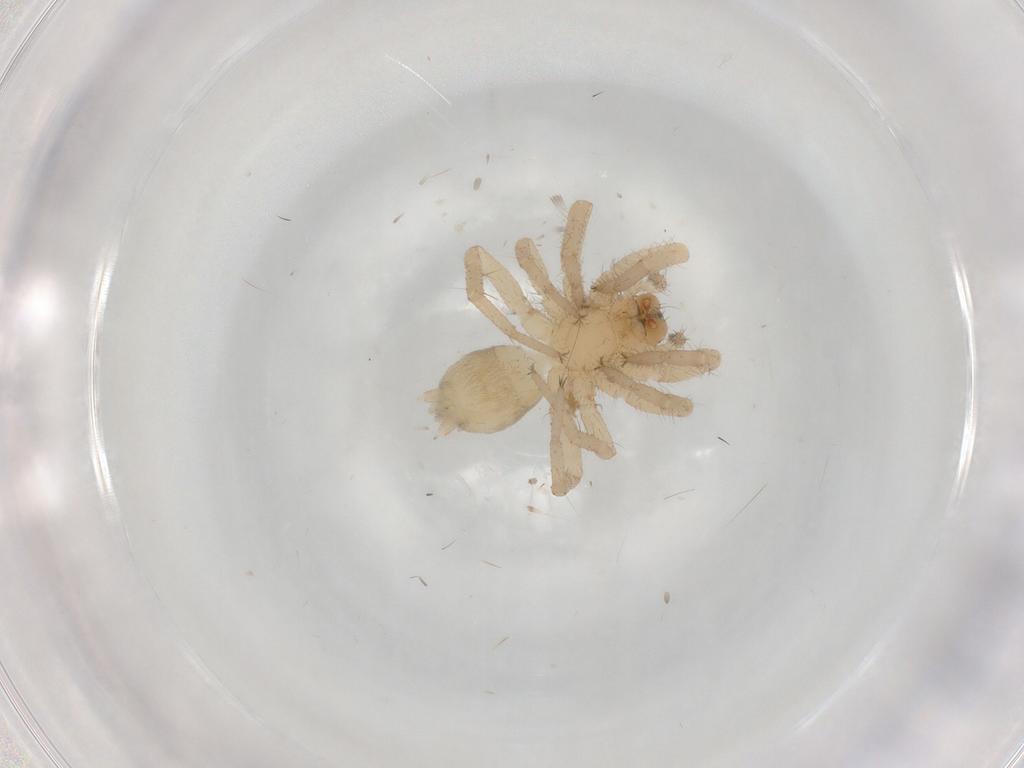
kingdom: Animalia
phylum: Arthropoda
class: Arachnida
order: Araneae
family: Gnaphosidae
